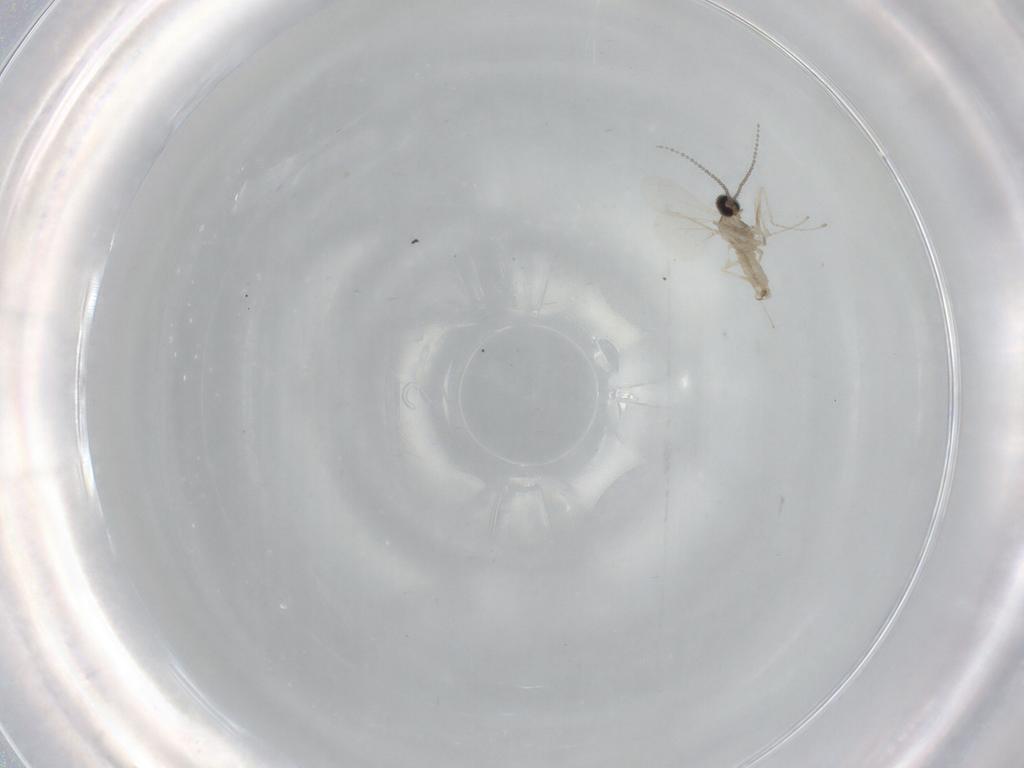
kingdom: Animalia
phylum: Arthropoda
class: Insecta
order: Diptera
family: Cecidomyiidae
